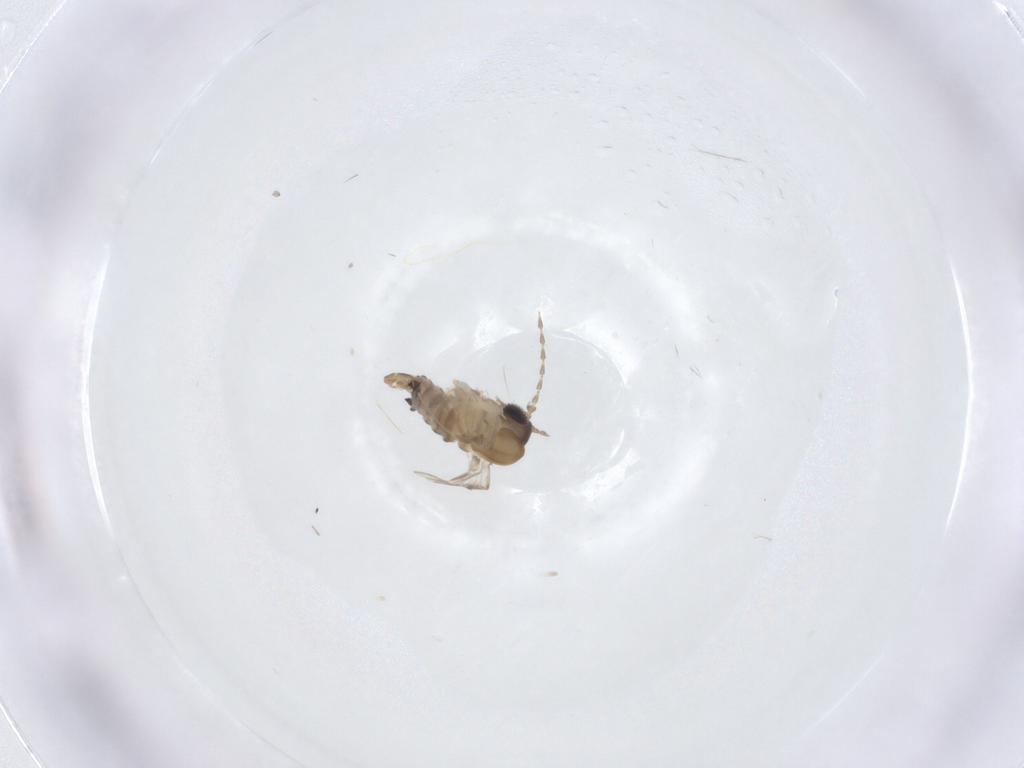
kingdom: Animalia
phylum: Arthropoda
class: Insecta
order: Diptera
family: Psychodidae
